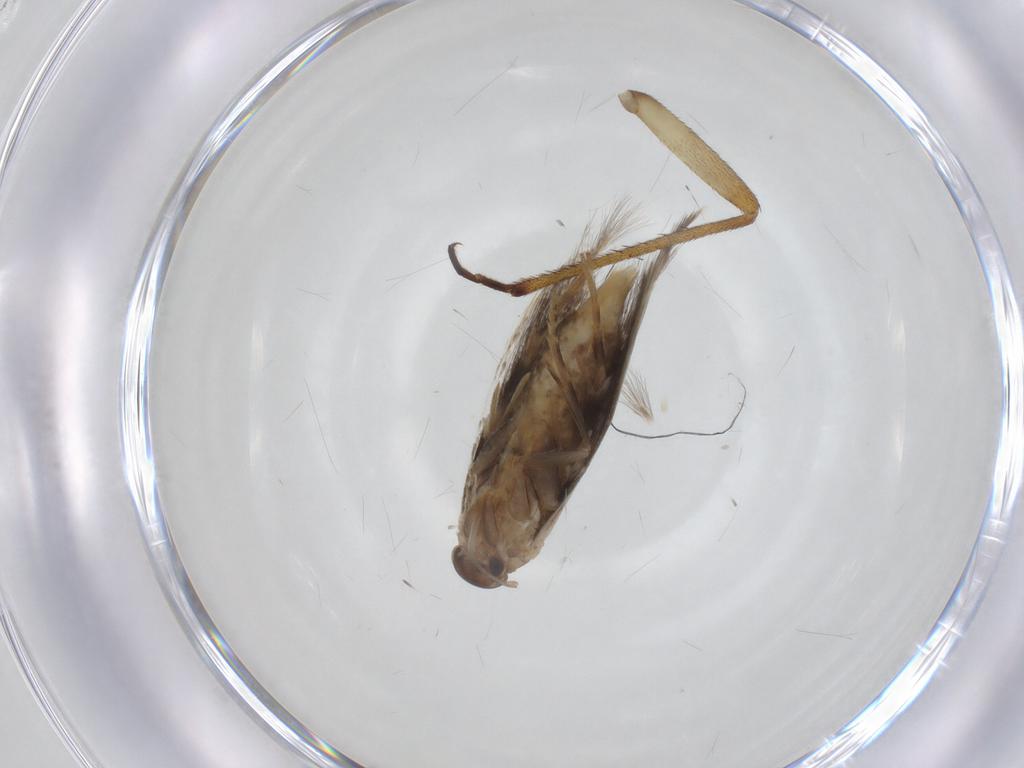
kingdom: Animalia
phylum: Arthropoda
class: Insecta
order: Lepidoptera
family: Elachistidae
